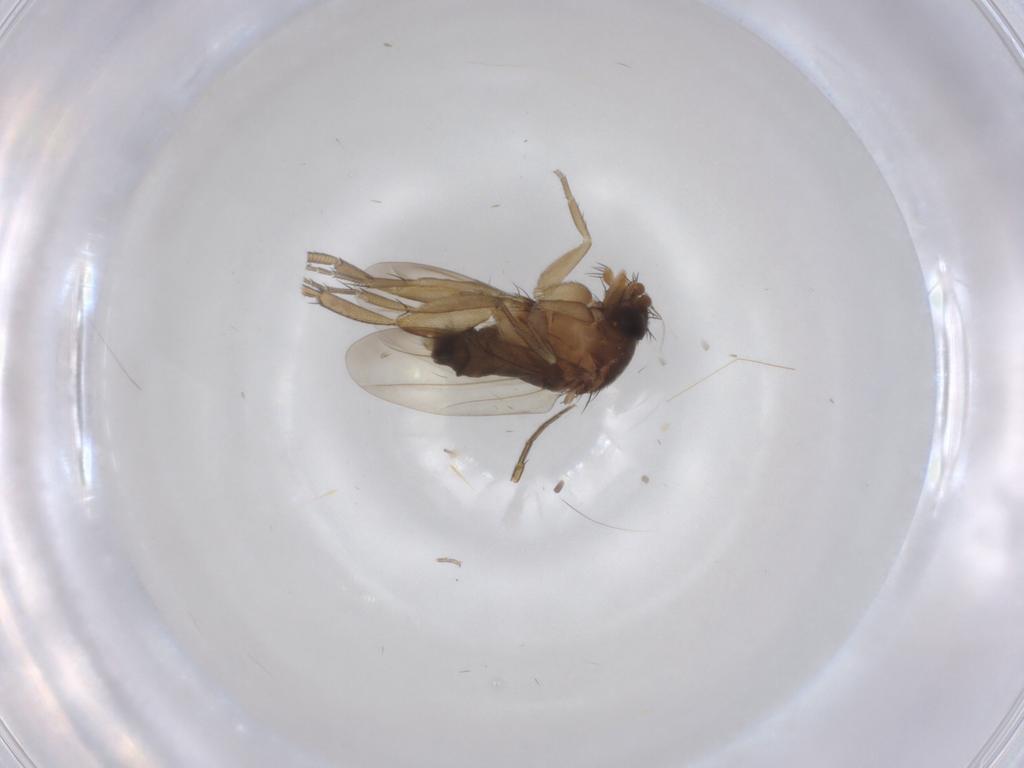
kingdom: Animalia
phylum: Arthropoda
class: Insecta
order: Diptera
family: Phoridae
